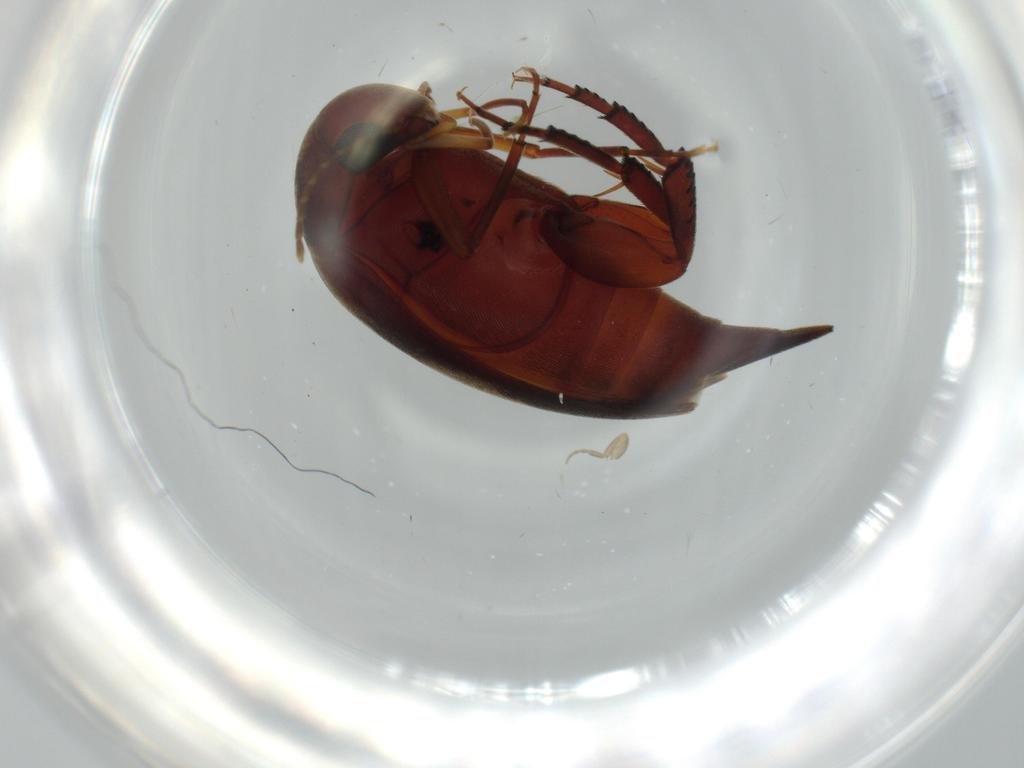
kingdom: Animalia
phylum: Arthropoda
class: Insecta
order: Coleoptera
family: Mordellidae
